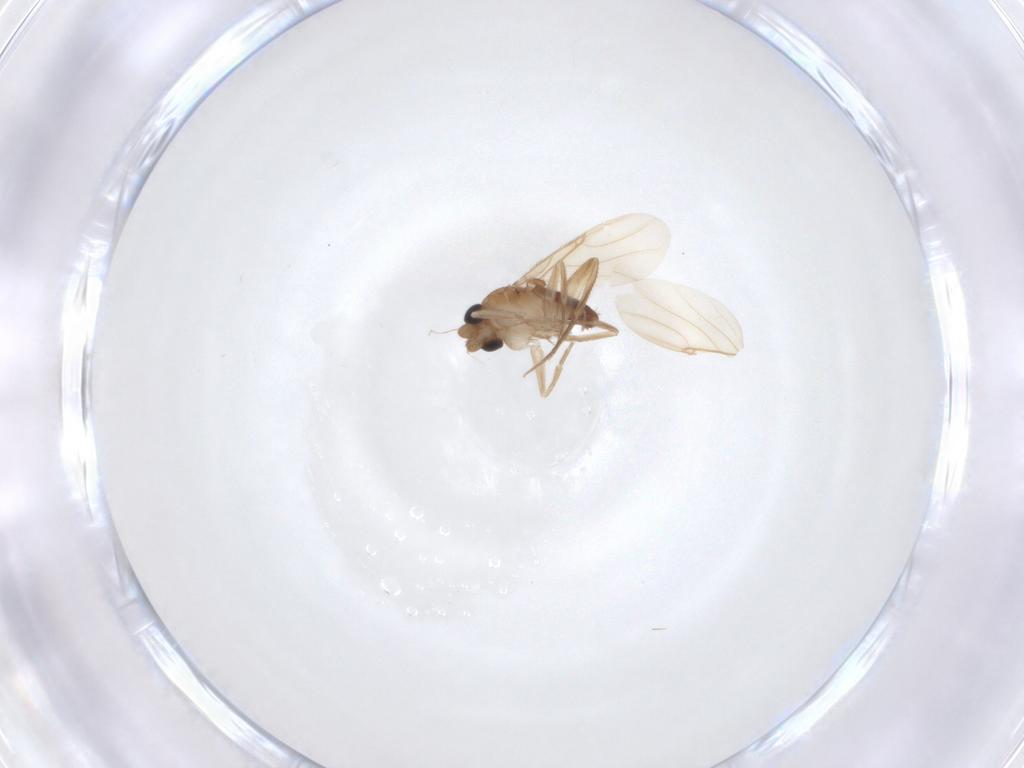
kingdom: Animalia
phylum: Arthropoda
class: Insecta
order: Diptera
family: Phoridae
